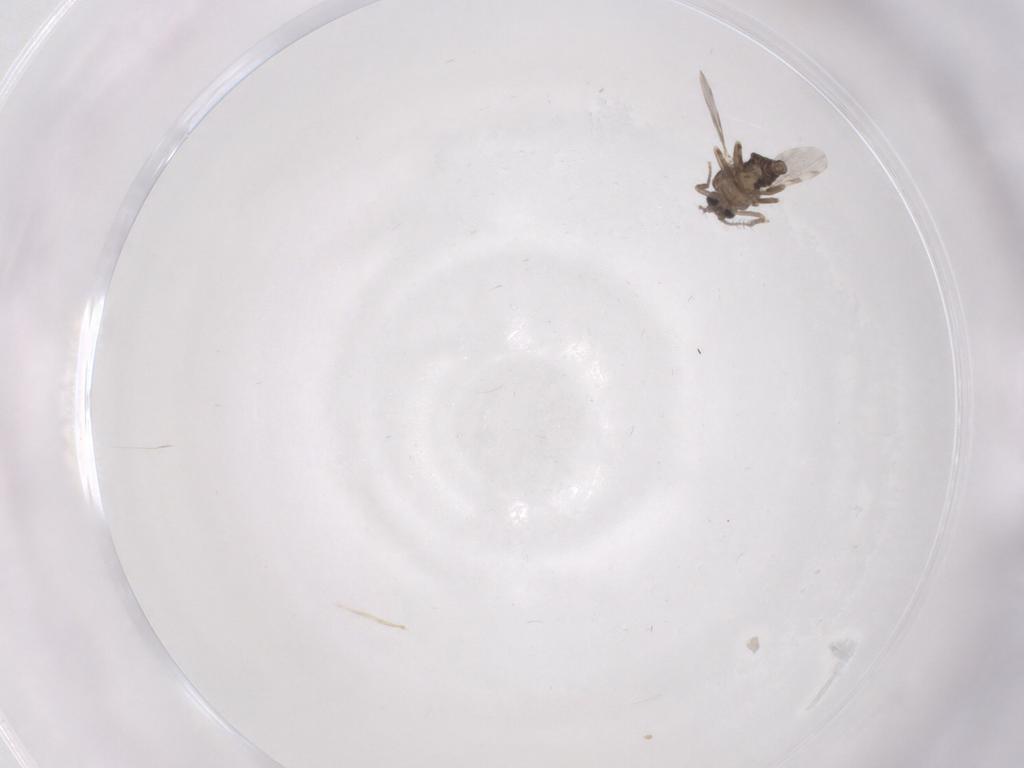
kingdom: Animalia
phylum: Arthropoda
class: Insecta
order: Diptera
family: Ceratopogonidae
